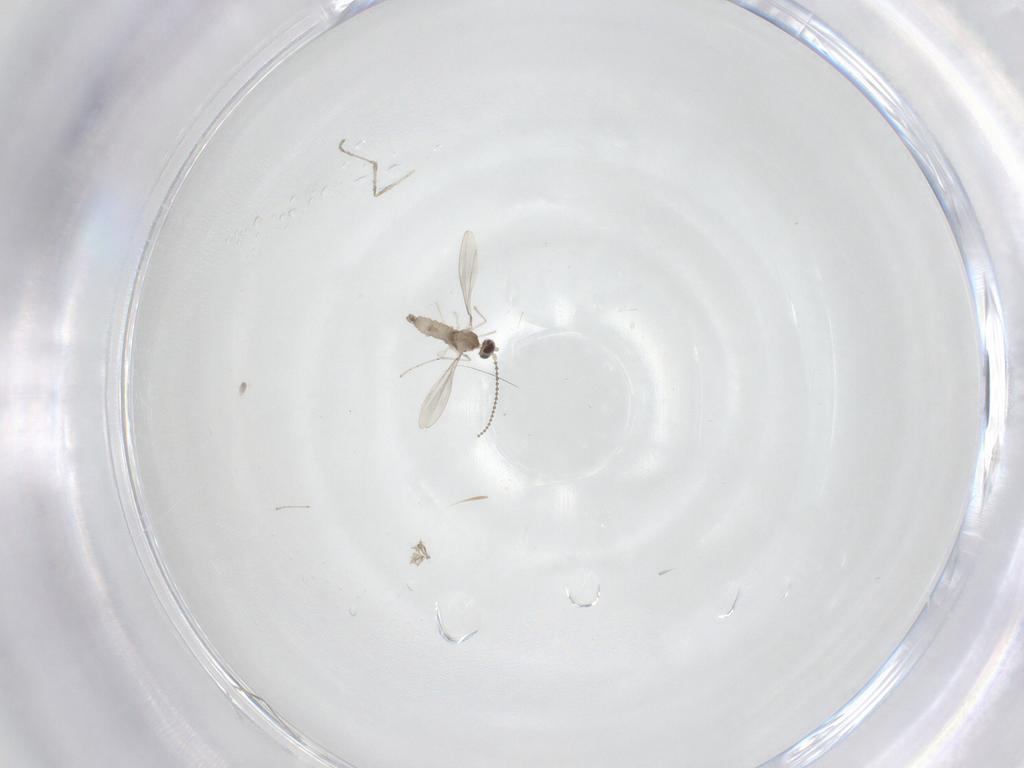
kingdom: Animalia
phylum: Arthropoda
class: Insecta
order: Diptera
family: Cecidomyiidae
